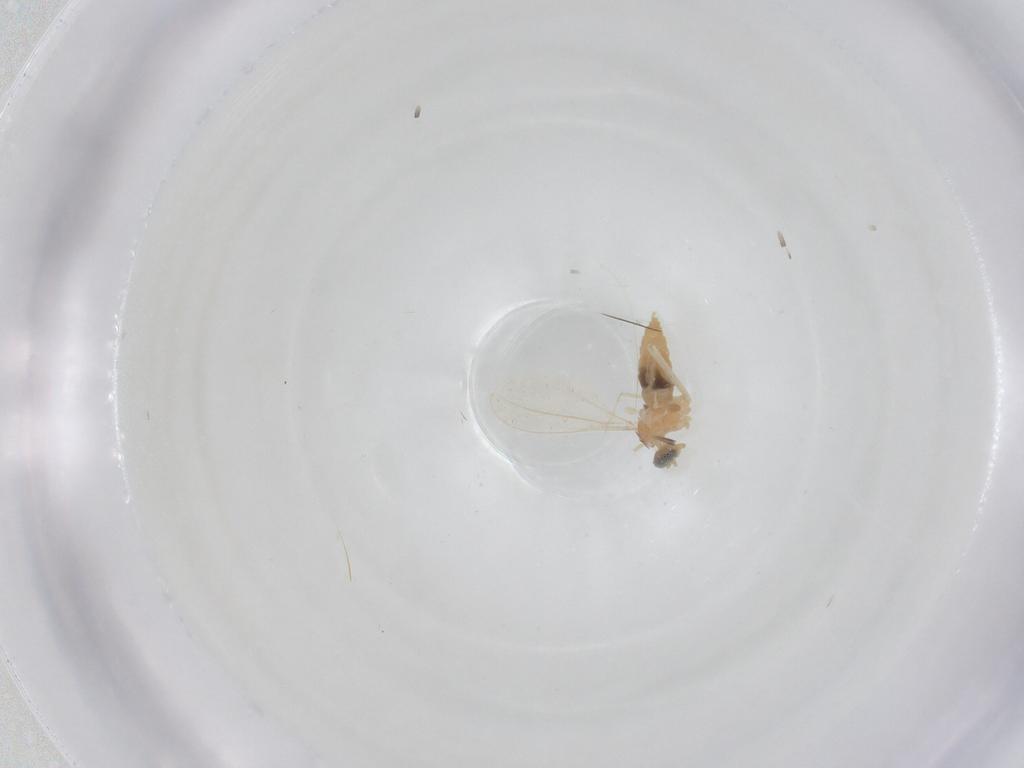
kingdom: Animalia
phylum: Arthropoda
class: Insecta
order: Diptera
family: Cecidomyiidae
